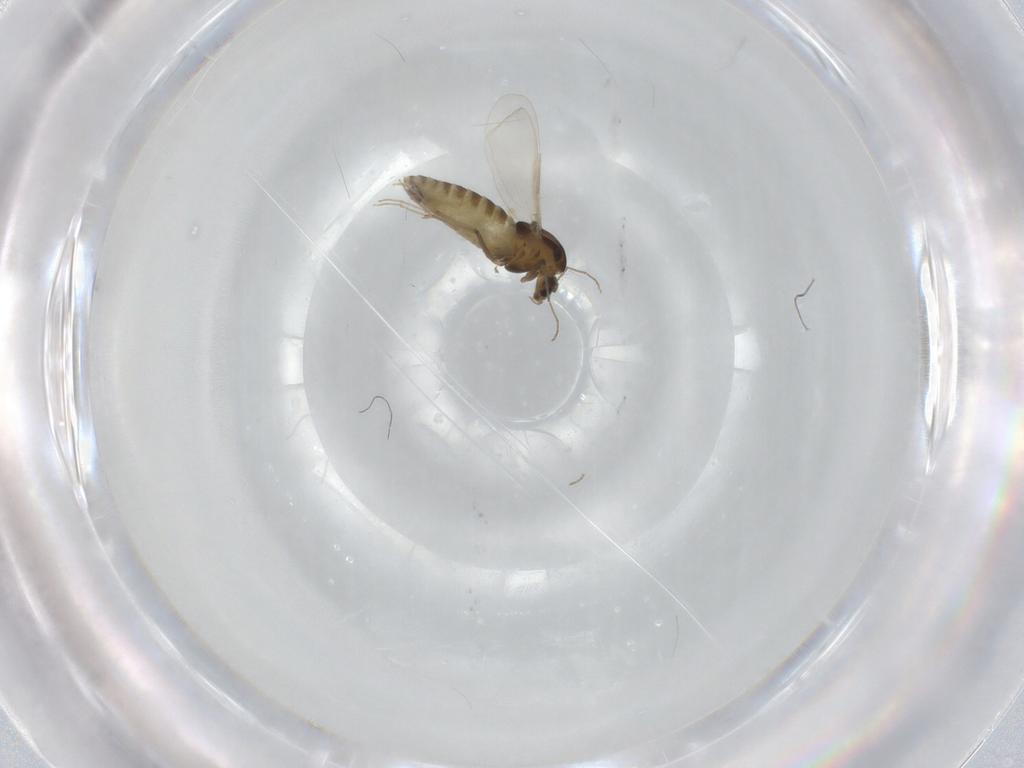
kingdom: Animalia
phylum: Arthropoda
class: Insecta
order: Diptera
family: Chironomidae
